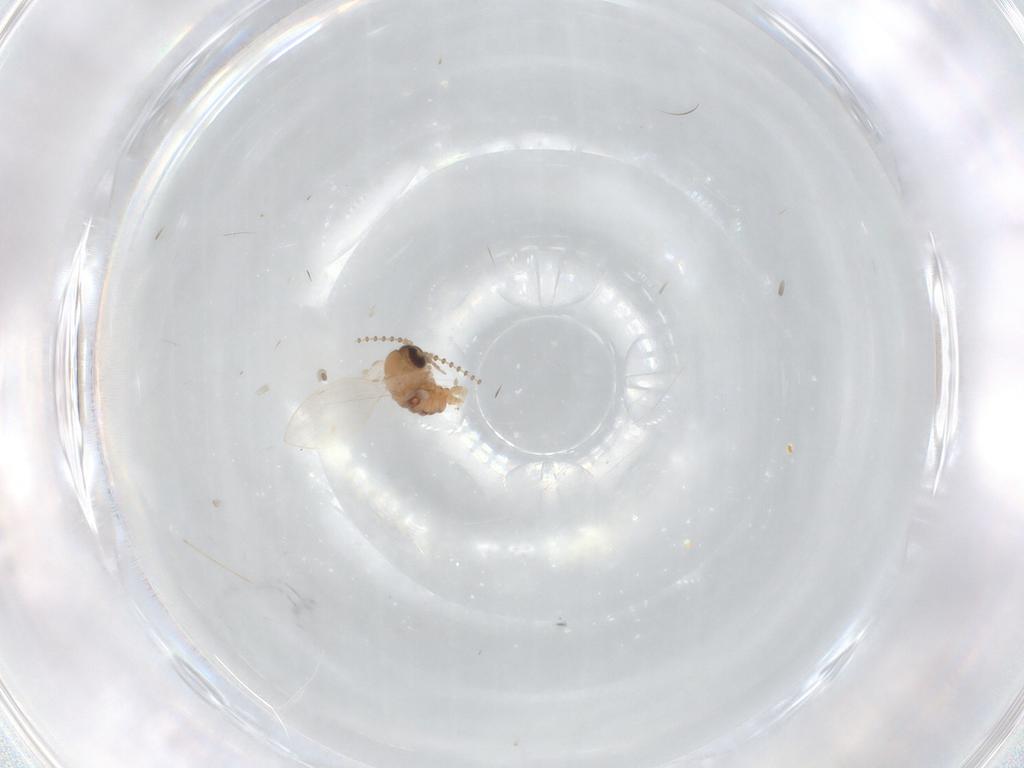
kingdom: Animalia
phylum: Arthropoda
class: Insecta
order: Diptera
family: Psychodidae
